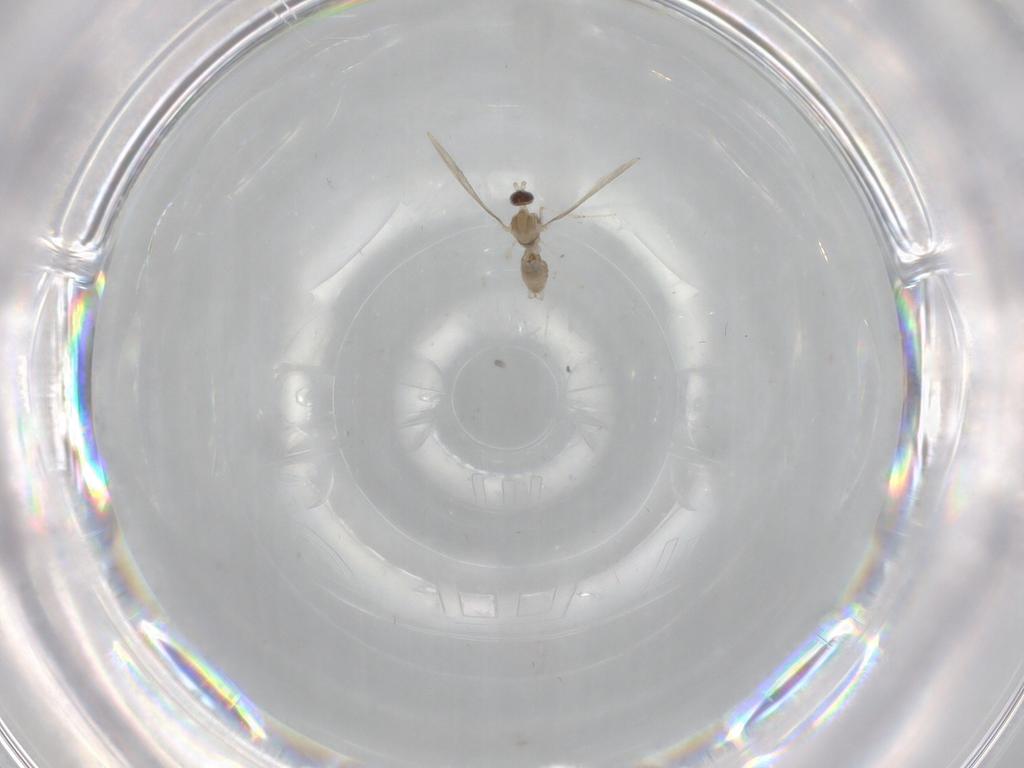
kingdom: Animalia
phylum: Arthropoda
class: Insecta
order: Diptera
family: Cecidomyiidae
